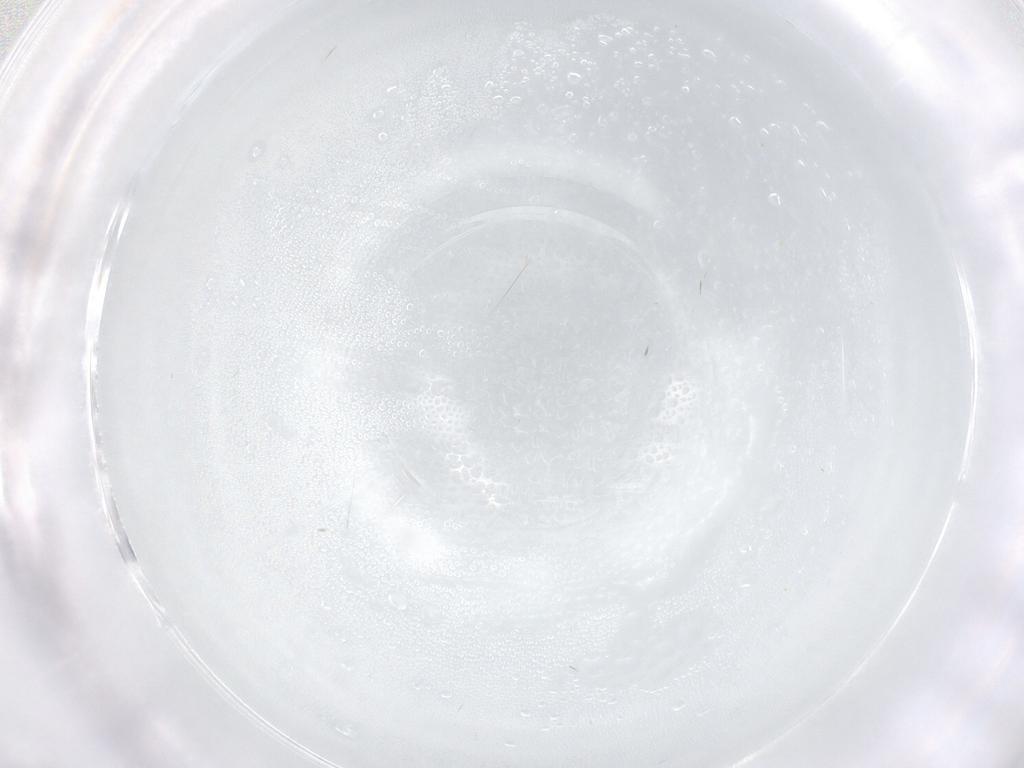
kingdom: Animalia
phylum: Arthropoda
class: Insecta
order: Diptera
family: Cecidomyiidae
